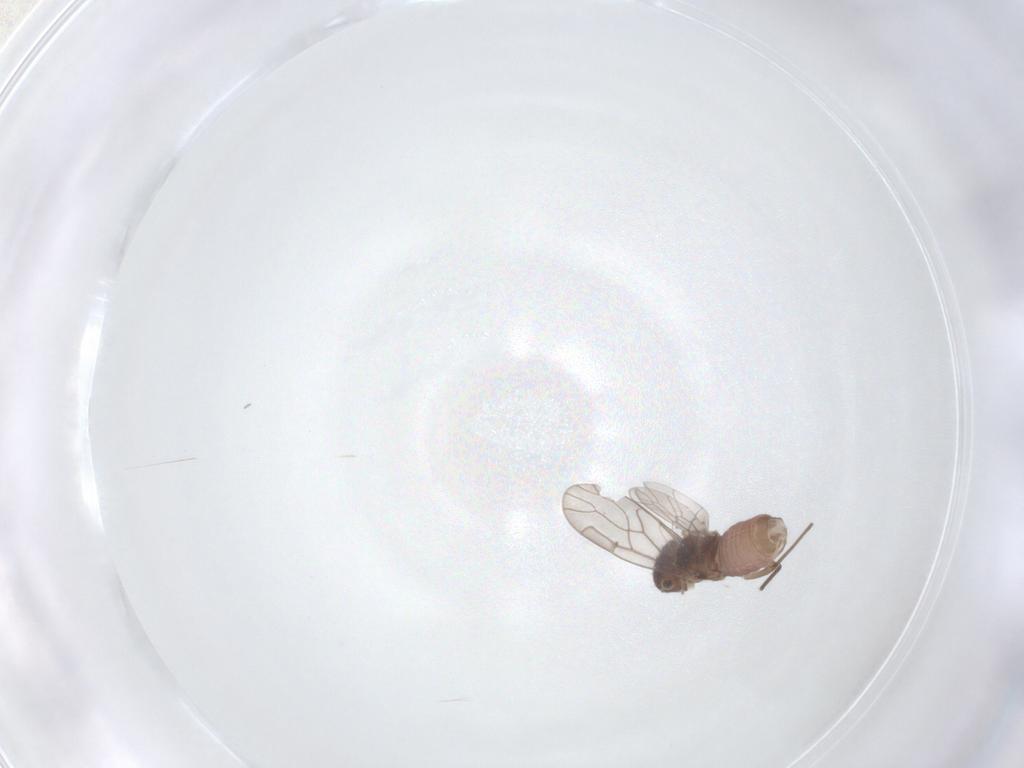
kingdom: Animalia
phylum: Arthropoda
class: Insecta
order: Psocodea
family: Ectopsocidae
